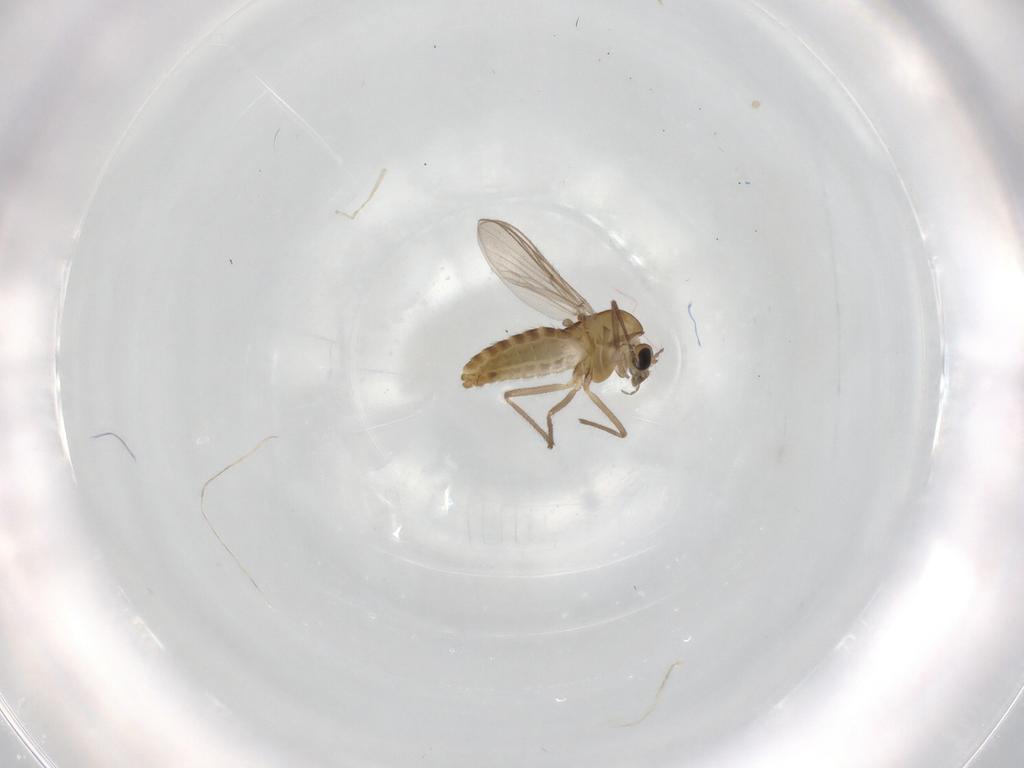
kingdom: Animalia
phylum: Arthropoda
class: Insecta
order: Diptera
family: Chironomidae
